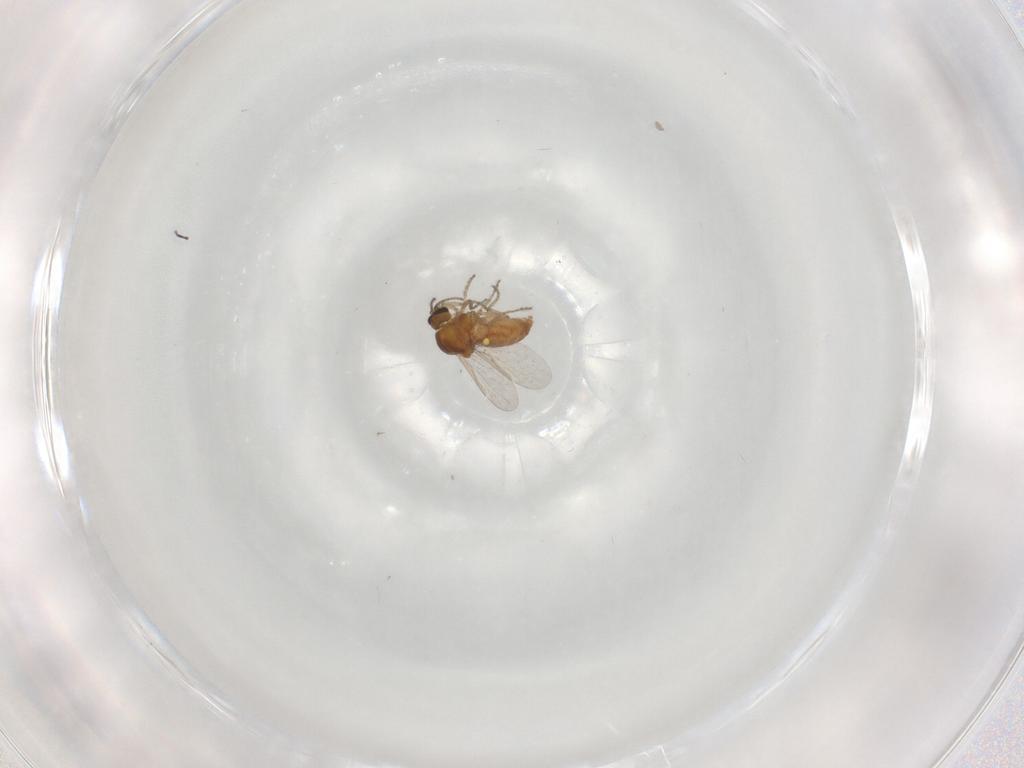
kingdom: Animalia
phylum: Arthropoda
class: Insecta
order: Diptera
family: Ceratopogonidae
